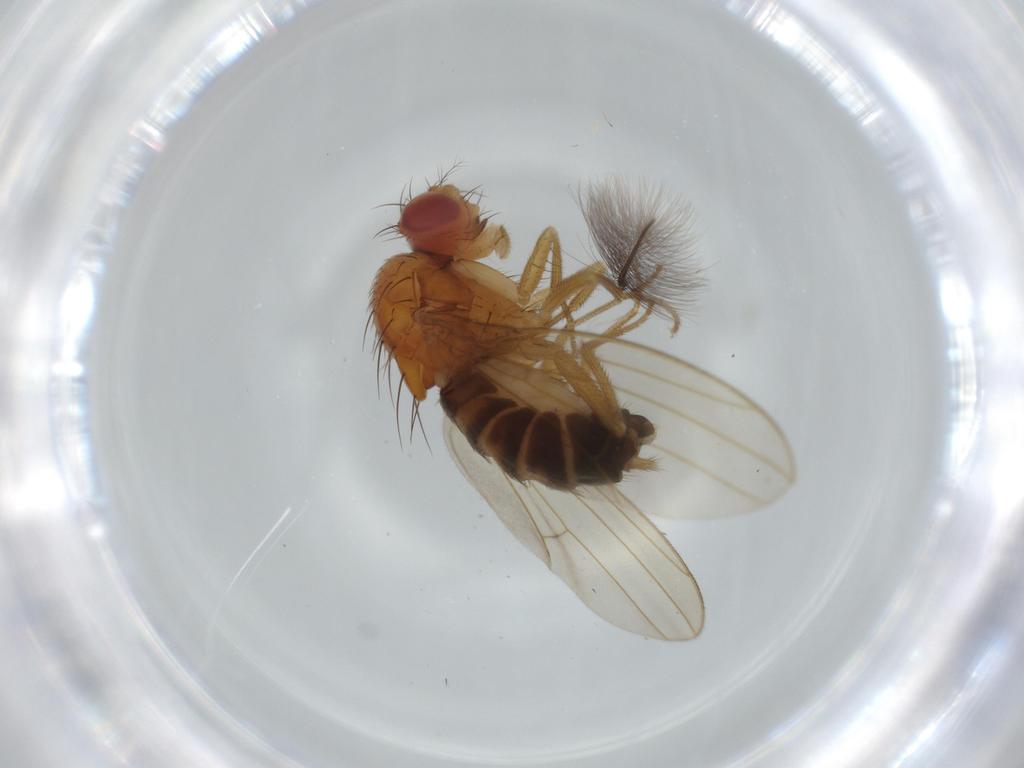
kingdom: Animalia
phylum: Arthropoda
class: Insecta
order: Diptera
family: Drosophilidae
